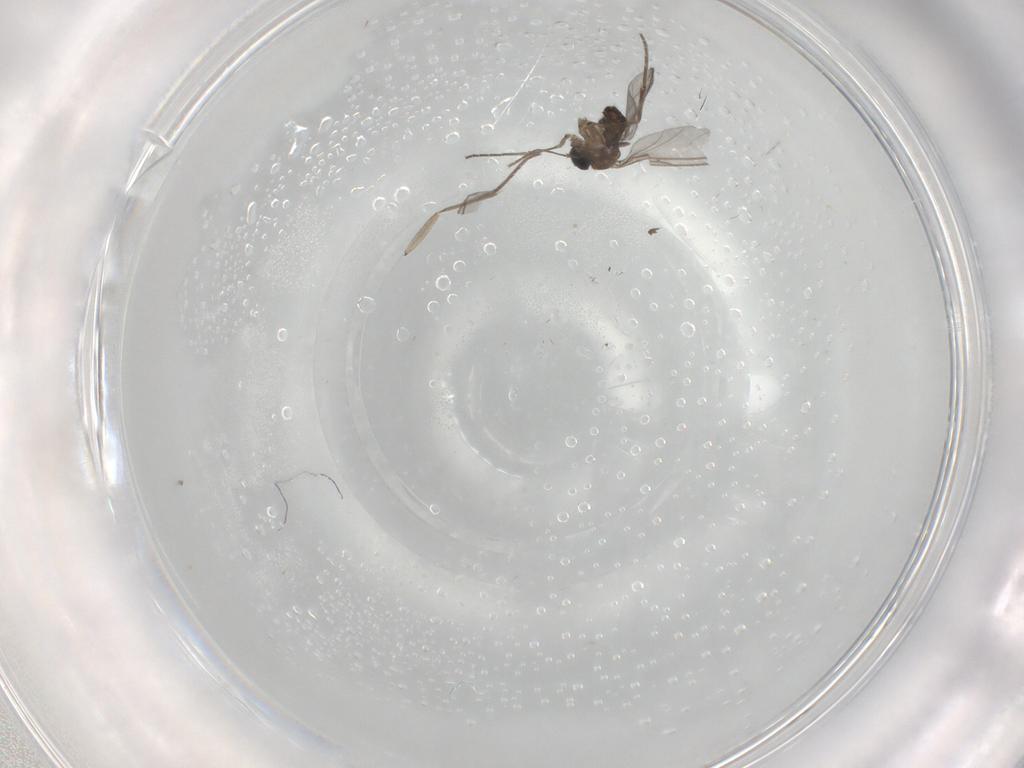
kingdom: Animalia
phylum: Arthropoda
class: Insecta
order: Diptera
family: Sciaridae
